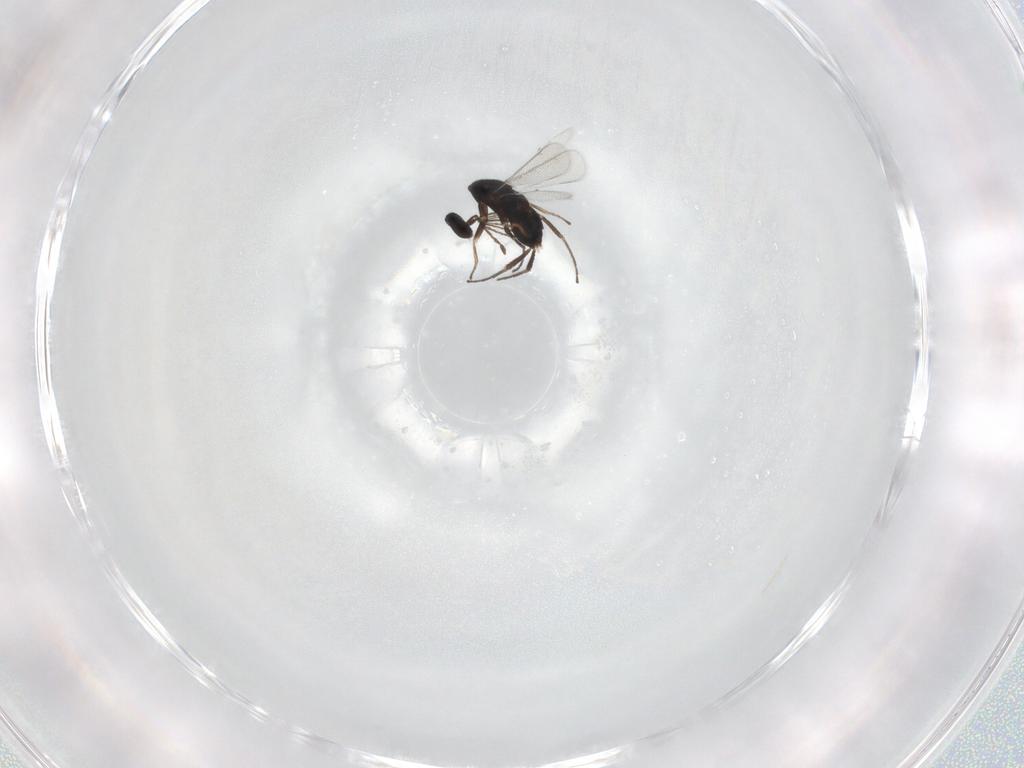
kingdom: Animalia
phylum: Arthropoda
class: Insecta
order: Hymenoptera
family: Eulophidae
